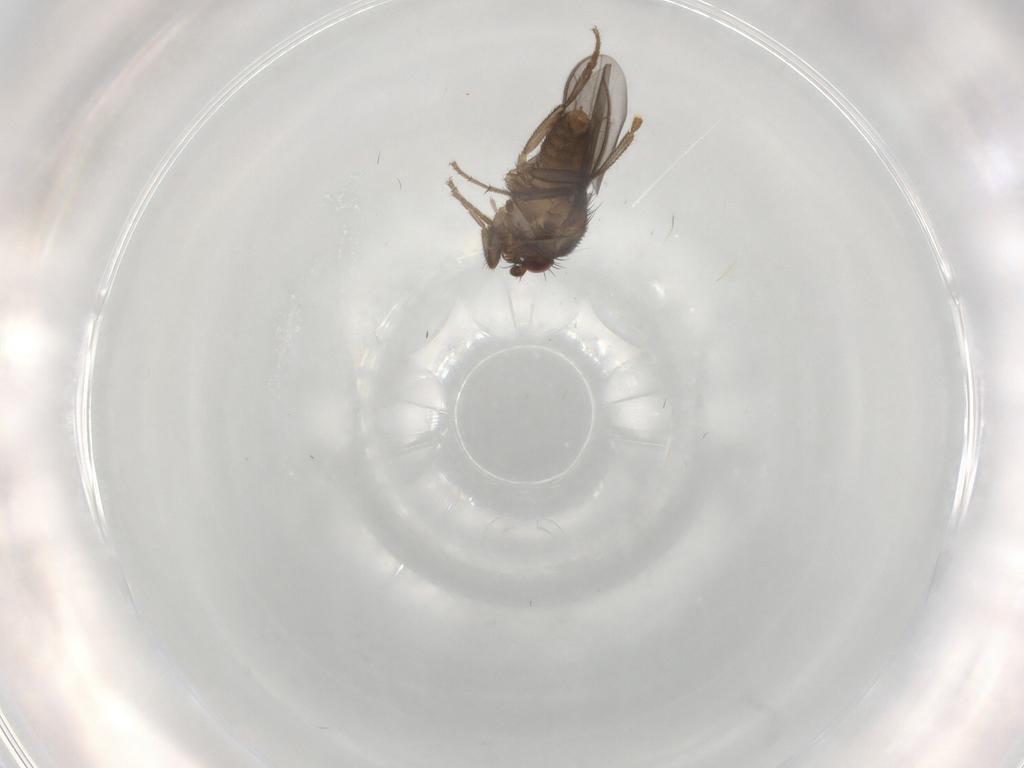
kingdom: Animalia
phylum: Arthropoda
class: Insecta
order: Diptera
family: Sphaeroceridae
